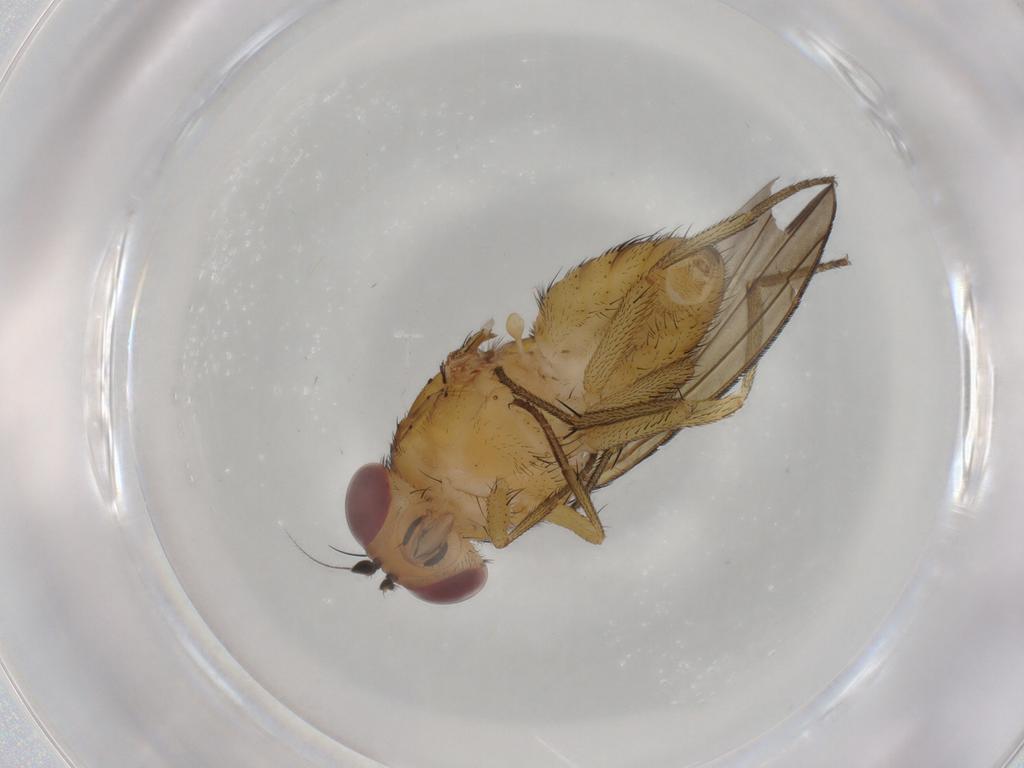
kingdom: Animalia
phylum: Arthropoda
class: Insecta
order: Diptera
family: Cecidomyiidae
